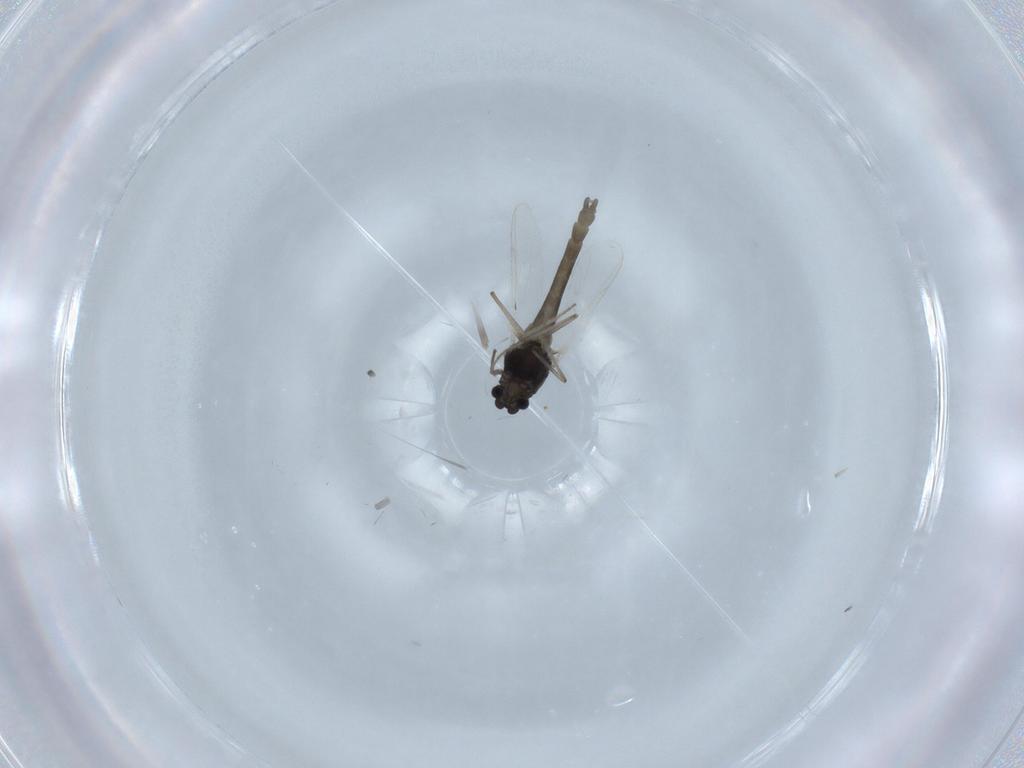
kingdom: Animalia
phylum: Arthropoda
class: Insecta
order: Diptera
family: Chironomidae
